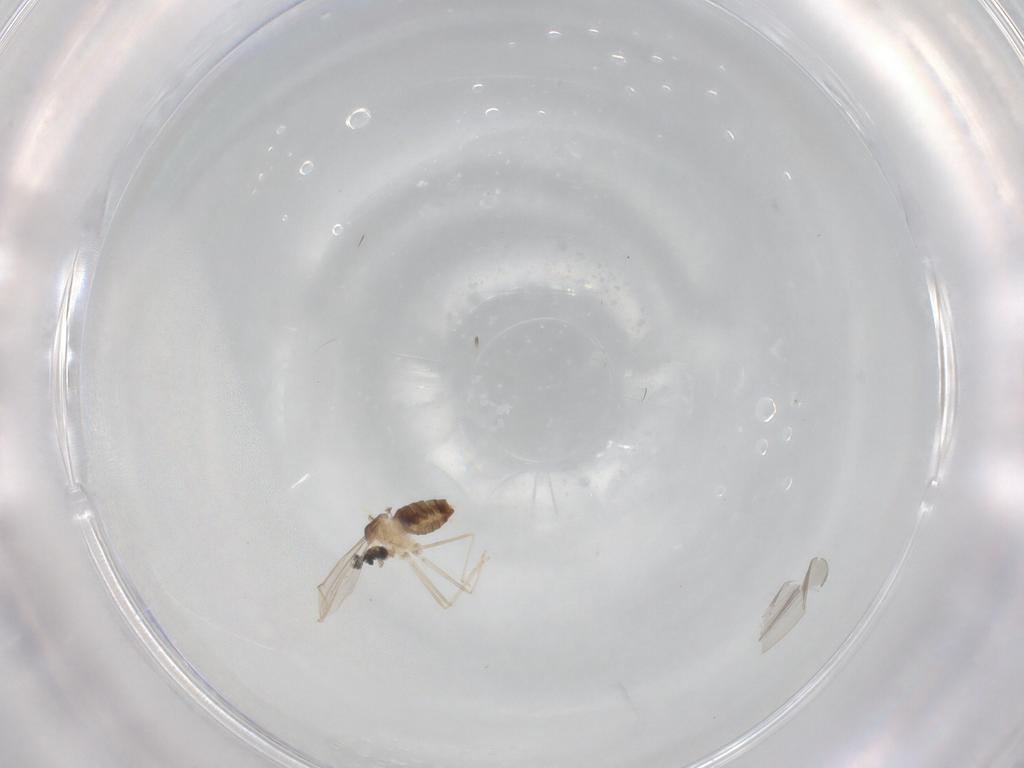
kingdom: Animalia
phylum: Arthropoda
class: Insecta
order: Diptera
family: Cecidomyiidae
